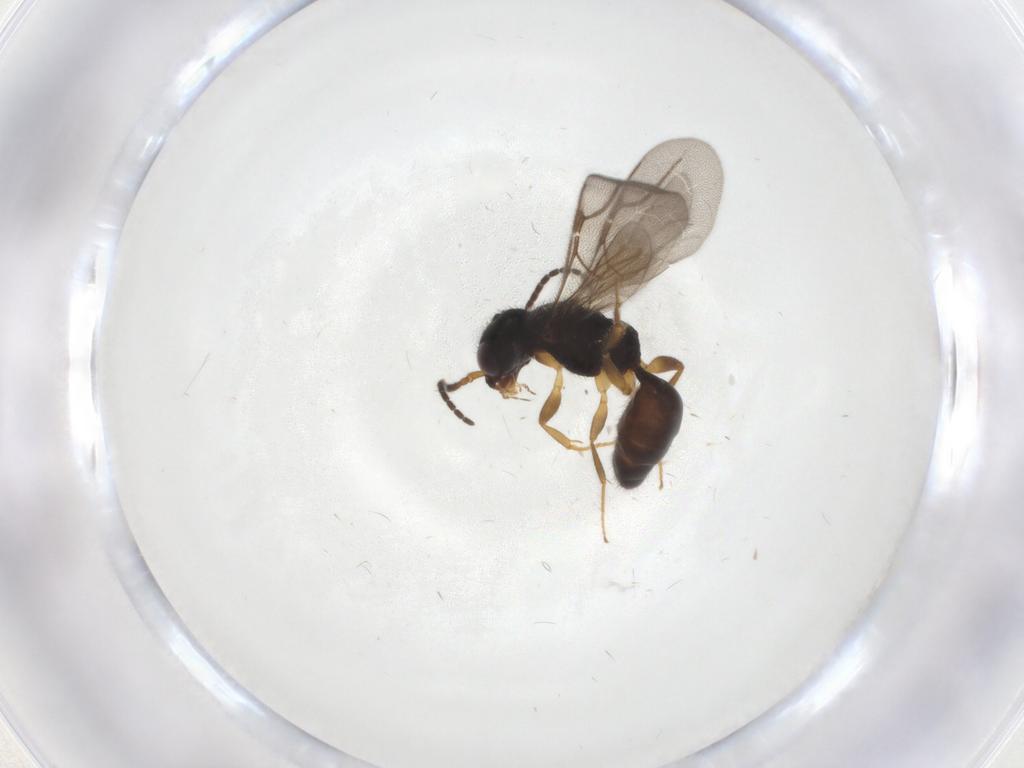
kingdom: Animalia
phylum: Arthropoda
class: Insecta
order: Hymenoptera
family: Bethylidae
